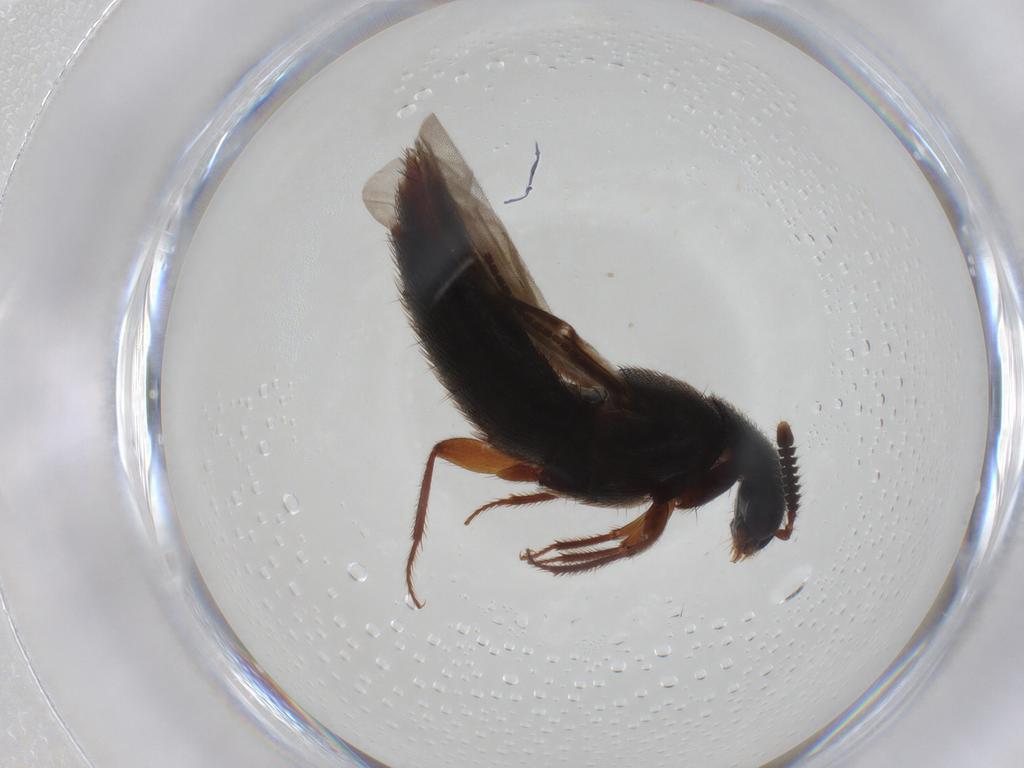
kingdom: Animalia
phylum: Arthropoda
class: Insecta
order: Coleoptera
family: Staphylinidae
